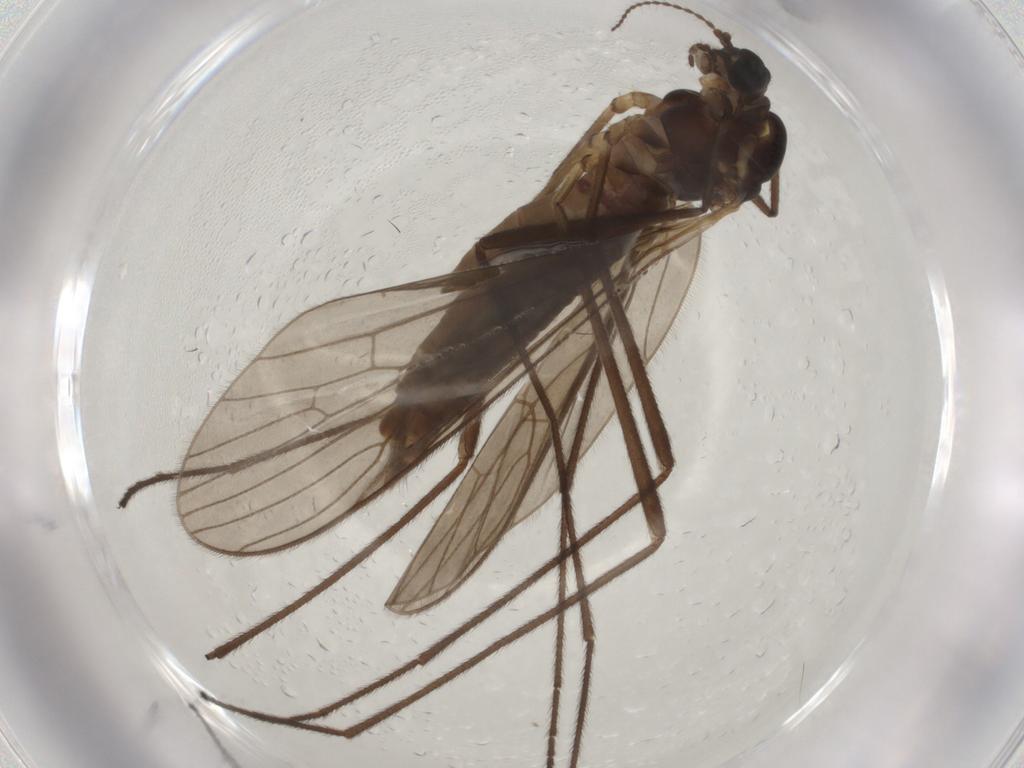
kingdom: Animalia
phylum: Arthropoda
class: Insecta
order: Diptera
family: Limoniidae
